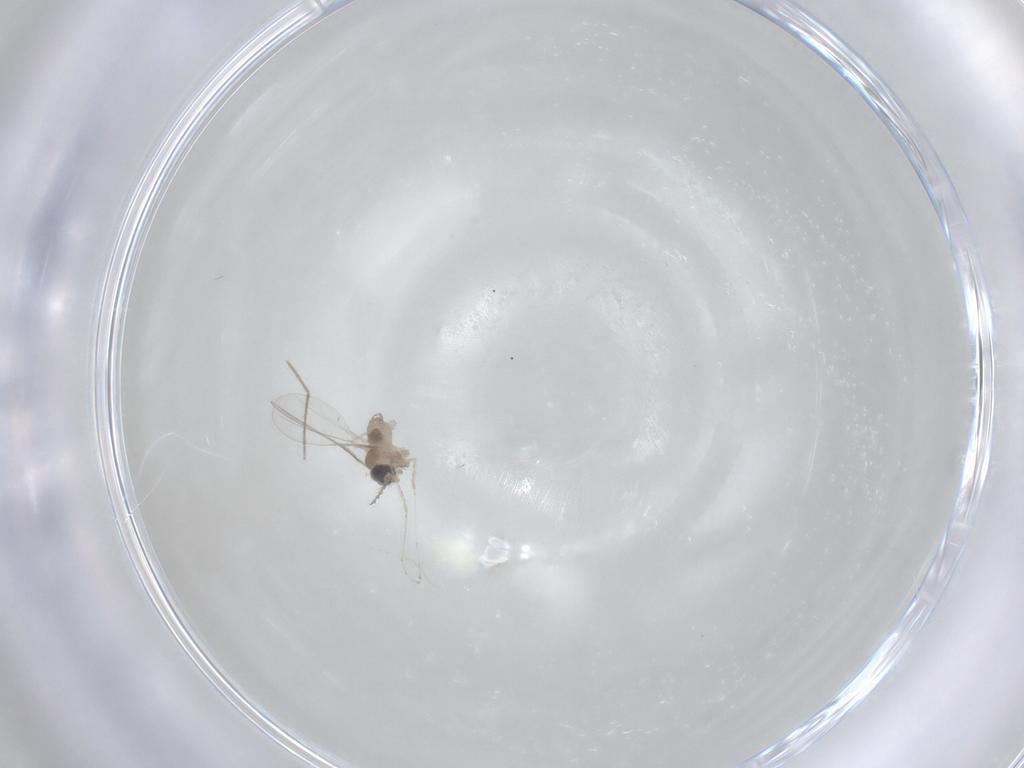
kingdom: Animalia
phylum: Arthropoda
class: Insecta
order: Diptera
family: Cecidomyiidae
